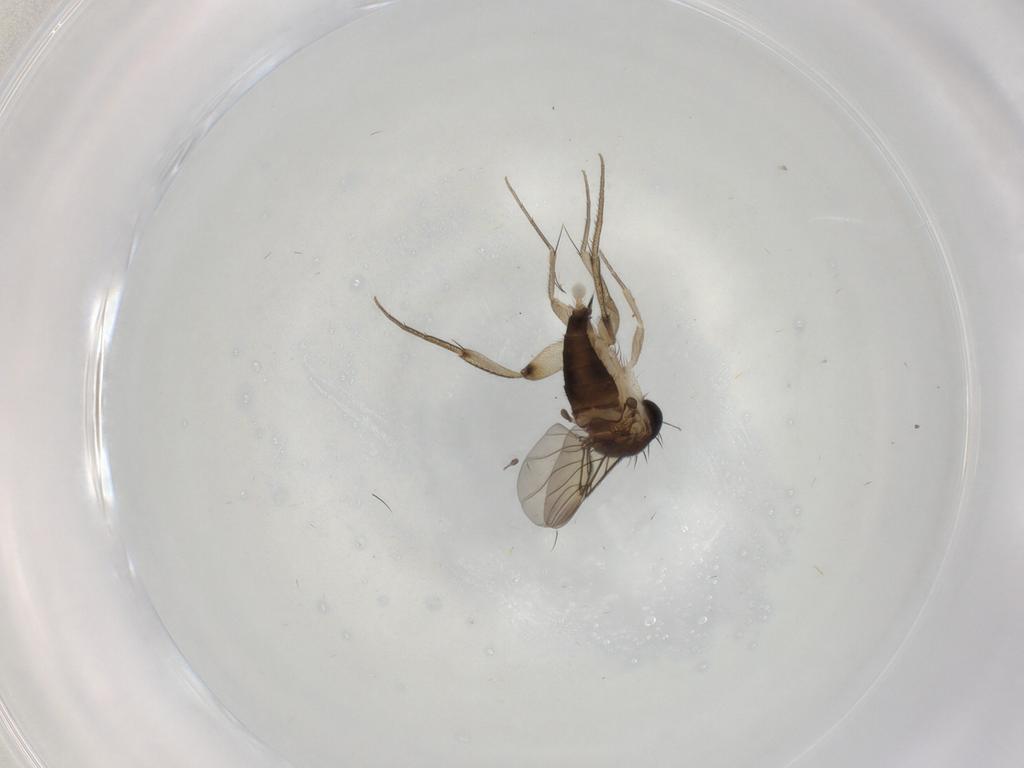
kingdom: Animalia
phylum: Arthropoda
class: Insecta
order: Diptera
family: Phoridae
